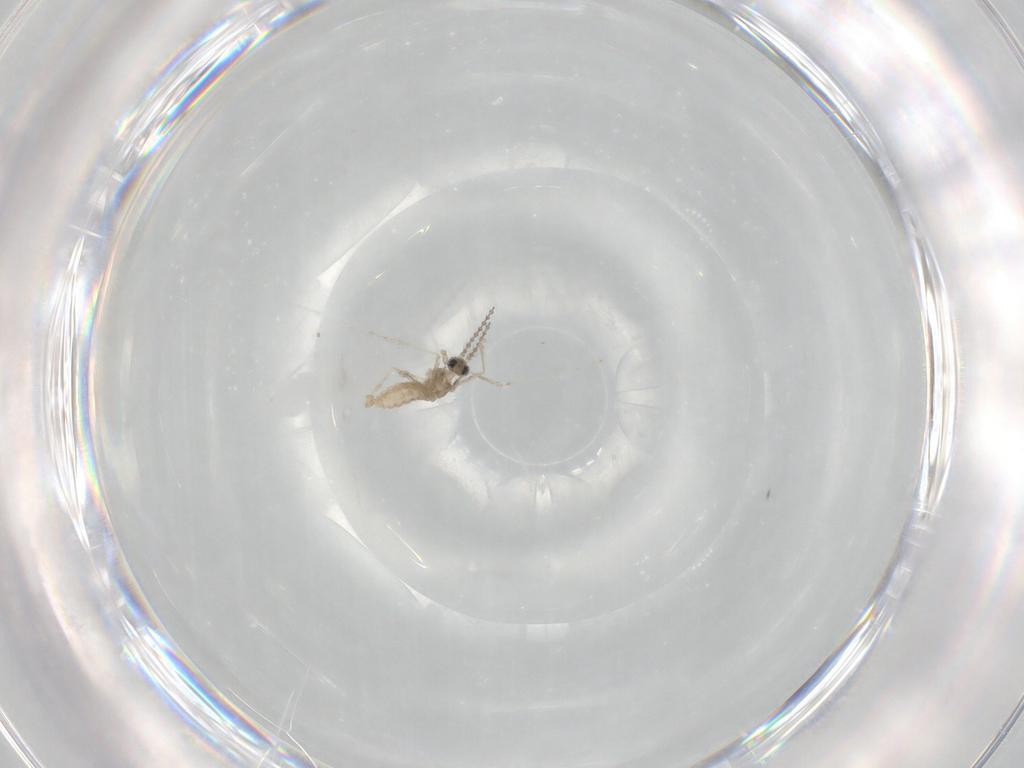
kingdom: Animalia
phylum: Arthropoda
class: Insecta
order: Diptera
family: Cecidomyiidae
